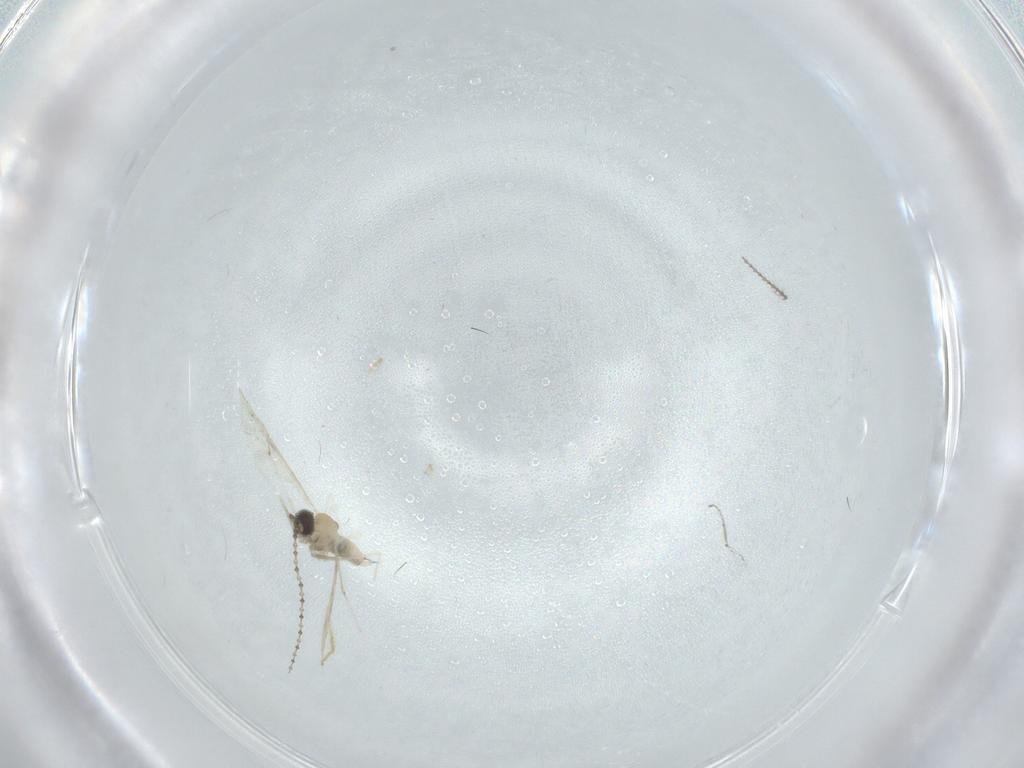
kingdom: Animalia
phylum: Arthropoda
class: Insecta
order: Diptera
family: Cecidomyiidae
